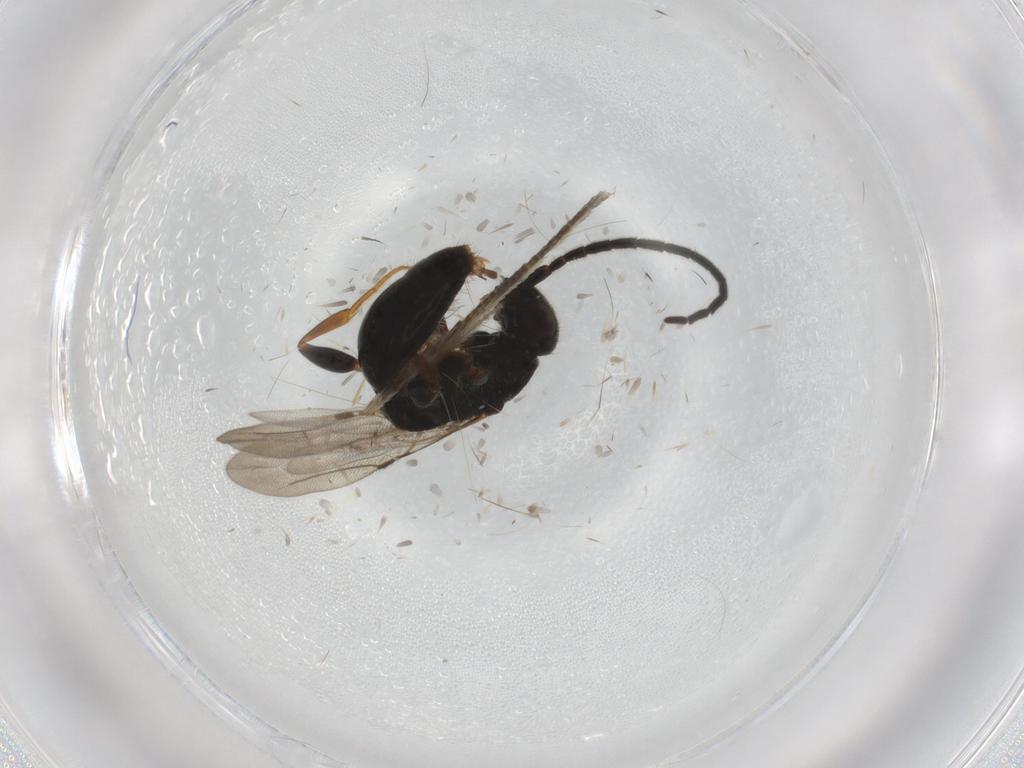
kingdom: Animalia
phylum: Arthropoda
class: Insecta
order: Hymenoptera
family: Bethylidae
